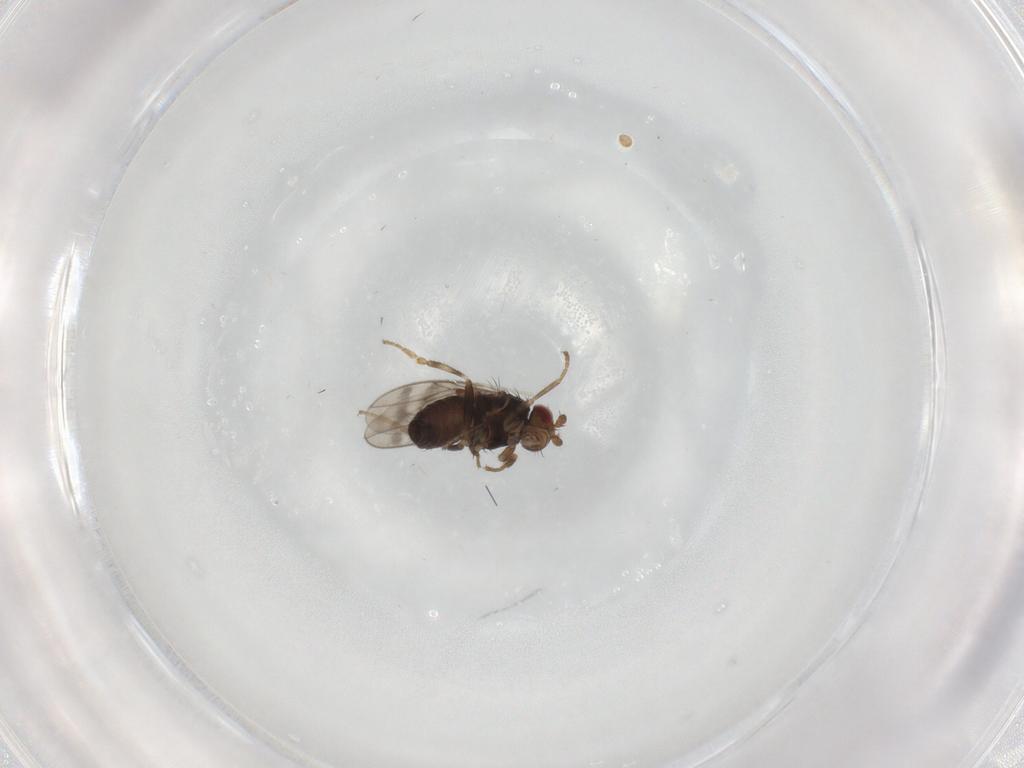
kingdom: Animalia
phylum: Arthropoda
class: Insecta
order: Diptera
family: Sphaeroceridae
